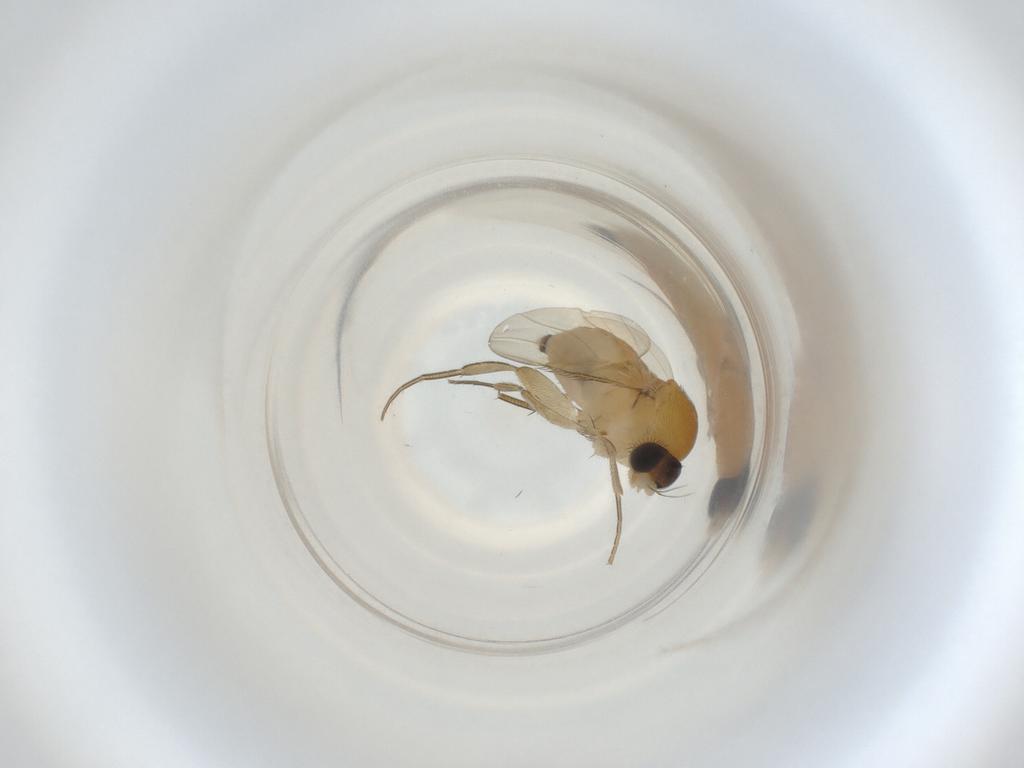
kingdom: Animalia
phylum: Arthropoda
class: Insecta
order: Diptera
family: Phoridae
